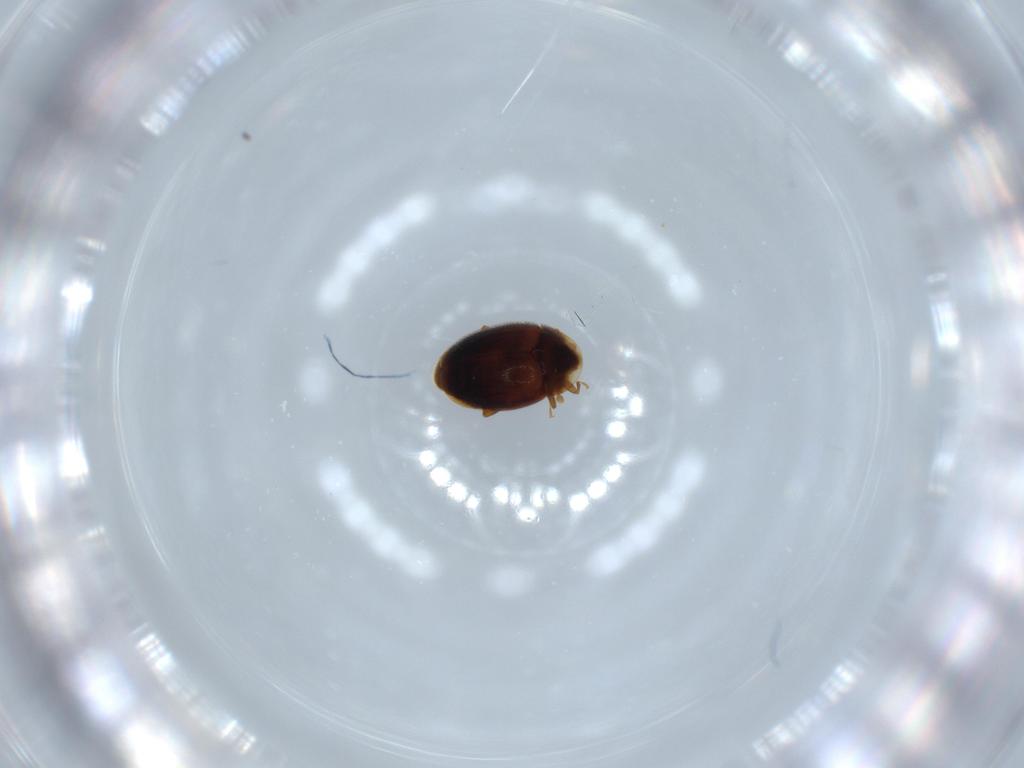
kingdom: Animalia
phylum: Arthropoda
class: Insecta
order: Coleoptera
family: Corylophidae
